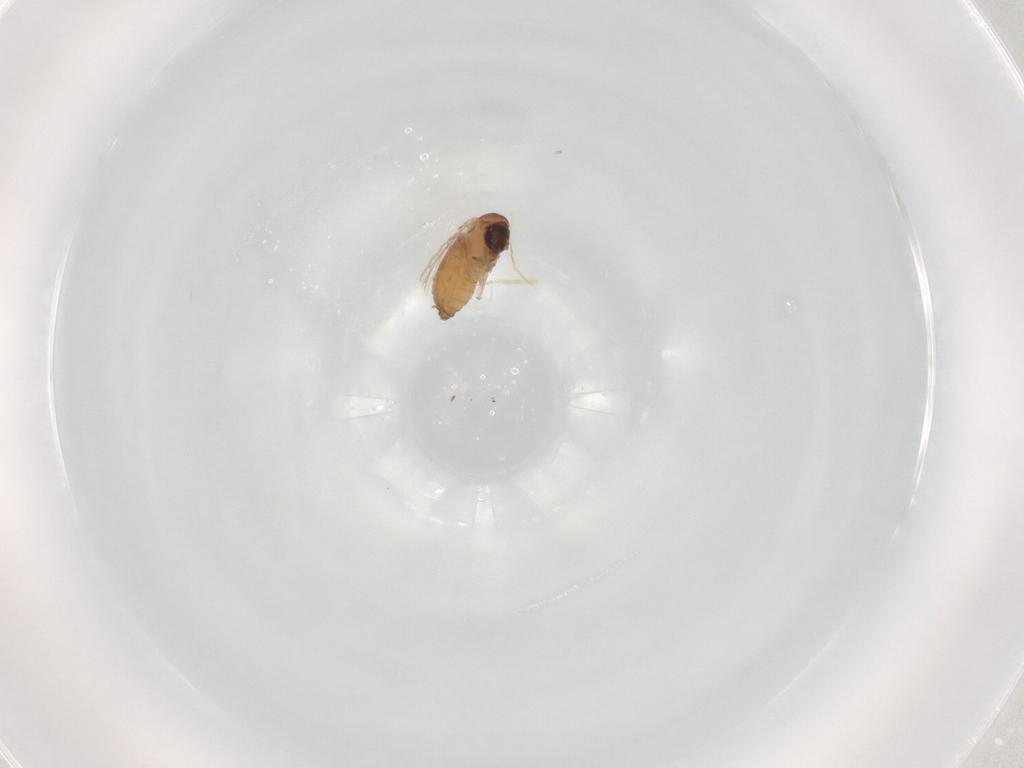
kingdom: Animalia
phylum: Arthropoda
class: Insecta
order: Diptera
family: Psychodidae
